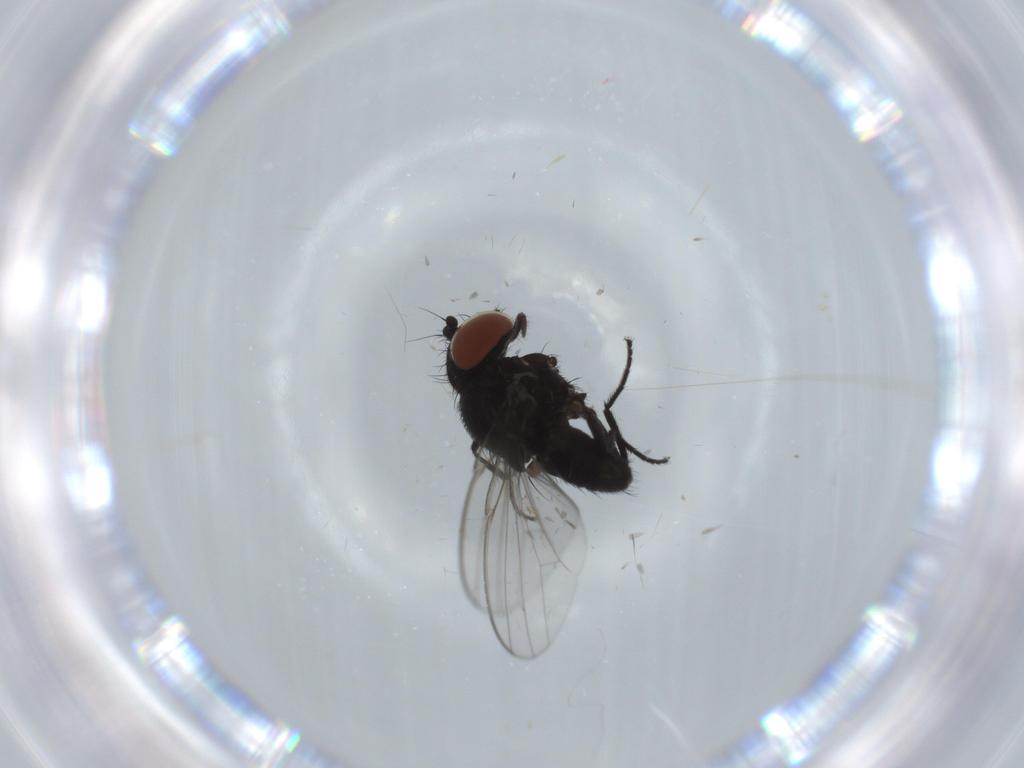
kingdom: Animalia
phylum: Arthropoda
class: Insecta
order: Diptera
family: Milichiidae
